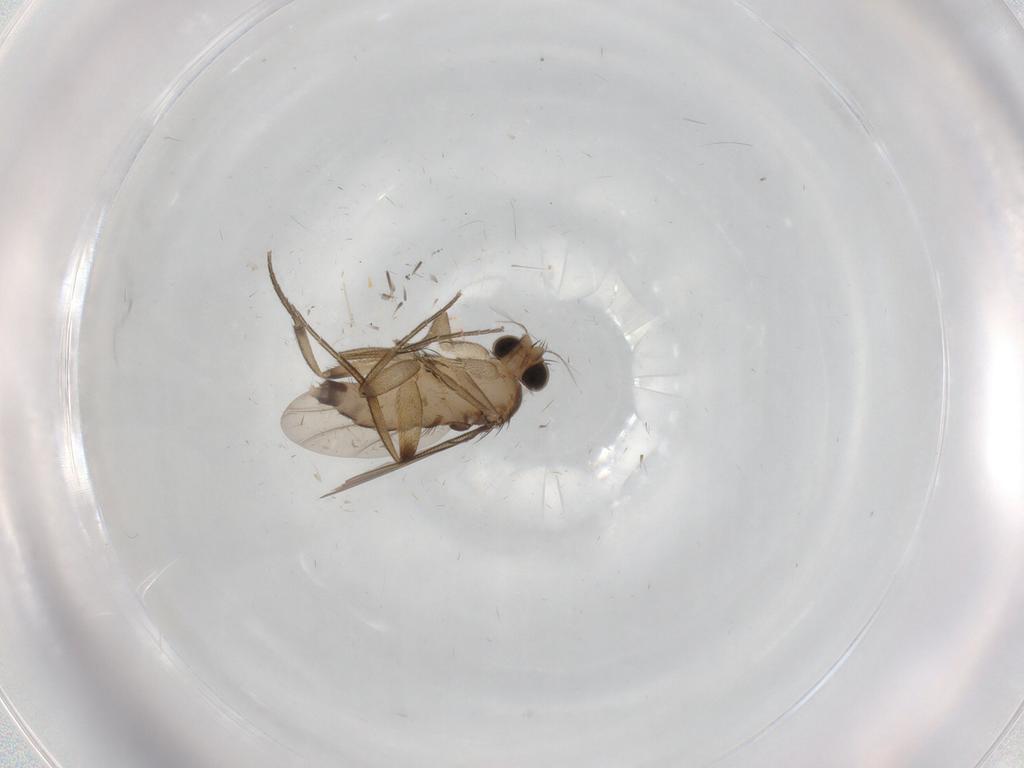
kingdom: Animalia
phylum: Arthropoda
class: Insecta
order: Diptera
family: Phoridae
